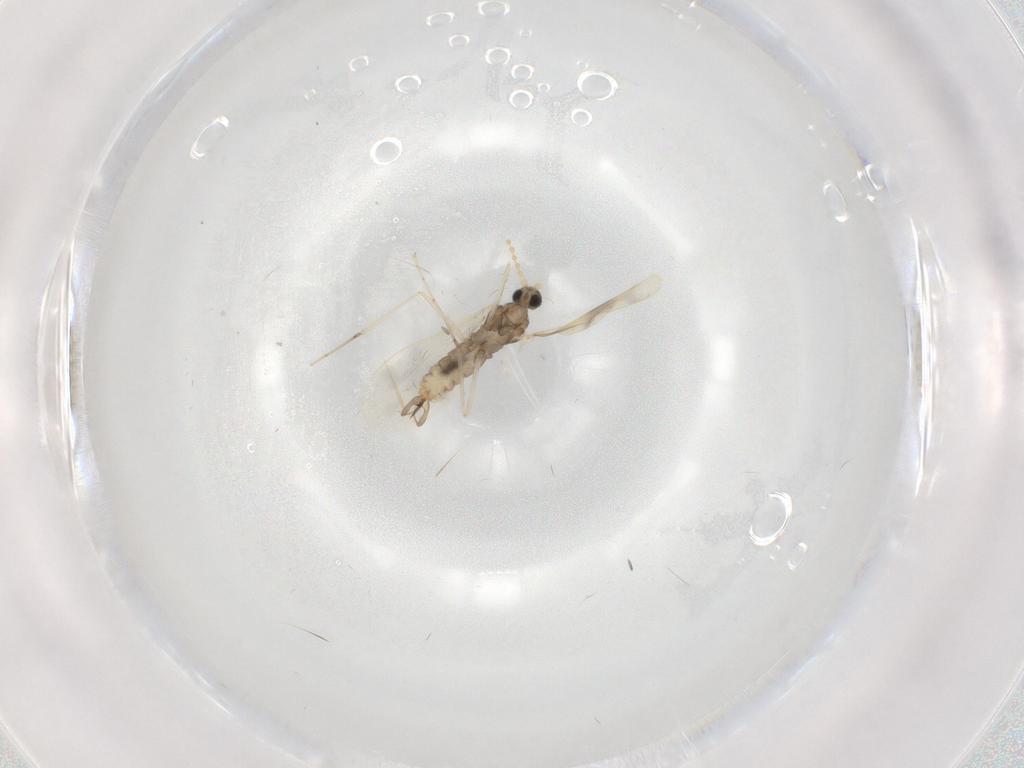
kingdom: Animalia
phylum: Arthropoda
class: Insecta
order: Diptera
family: Cecidomyiidae
